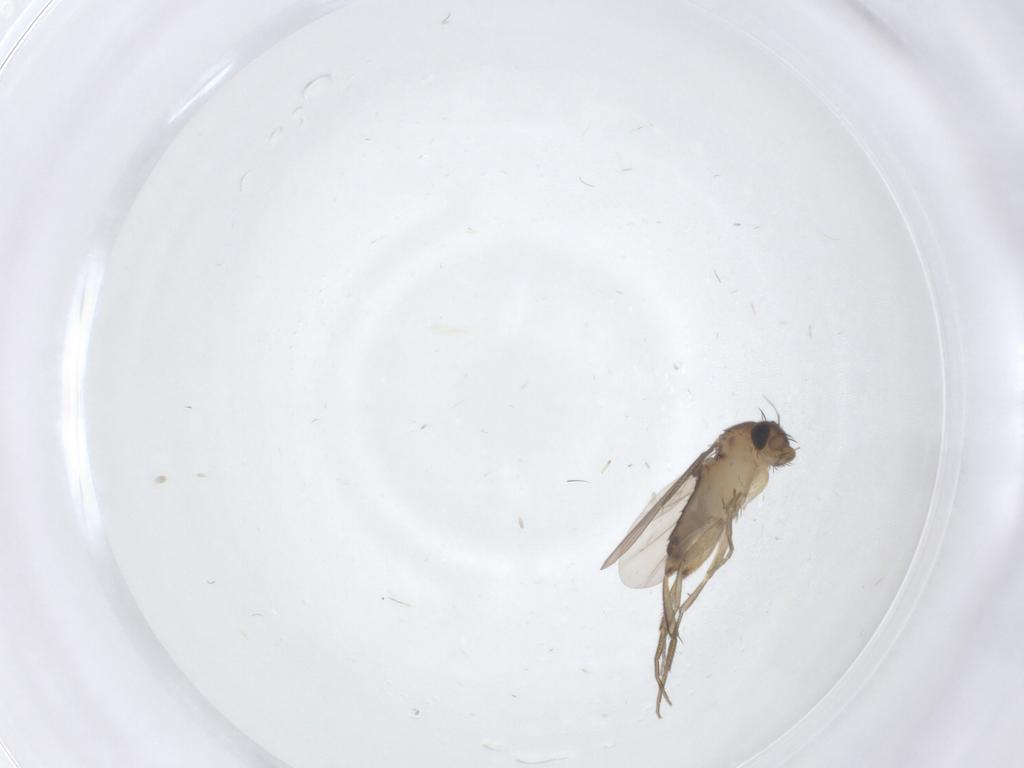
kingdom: Animalia
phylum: Arthropoda
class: Insecta
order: Diptera
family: Phoridae
